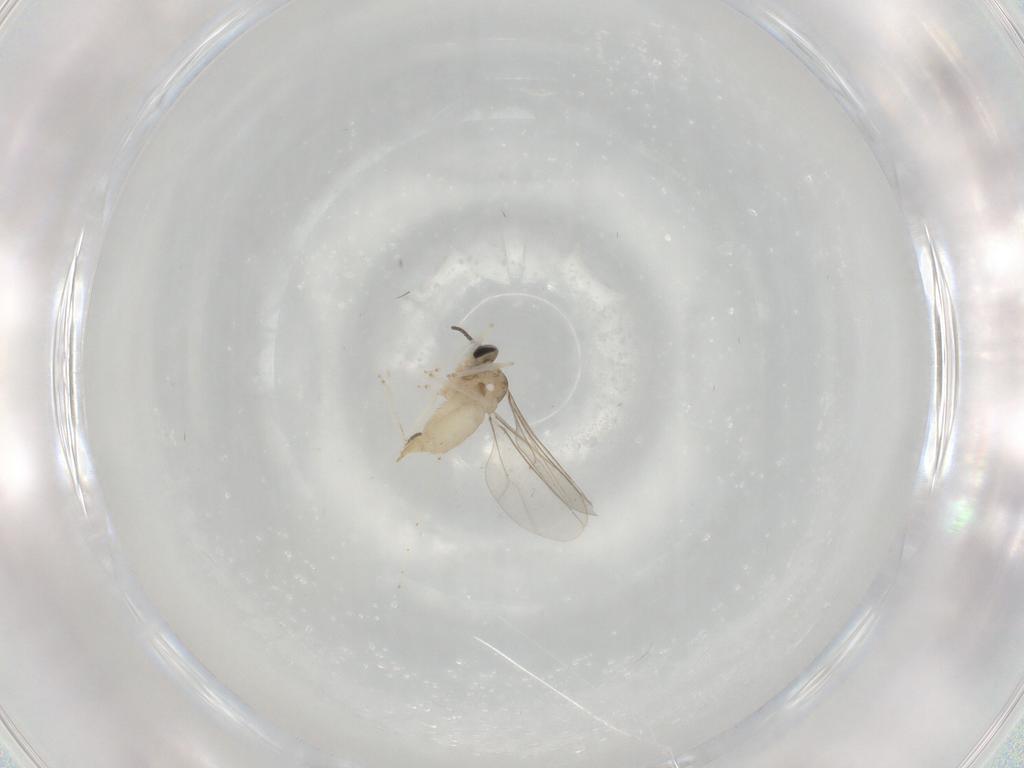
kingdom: Animalia
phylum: Arthropoda
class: Insecta
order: Diptera
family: Cecidomyiidae
